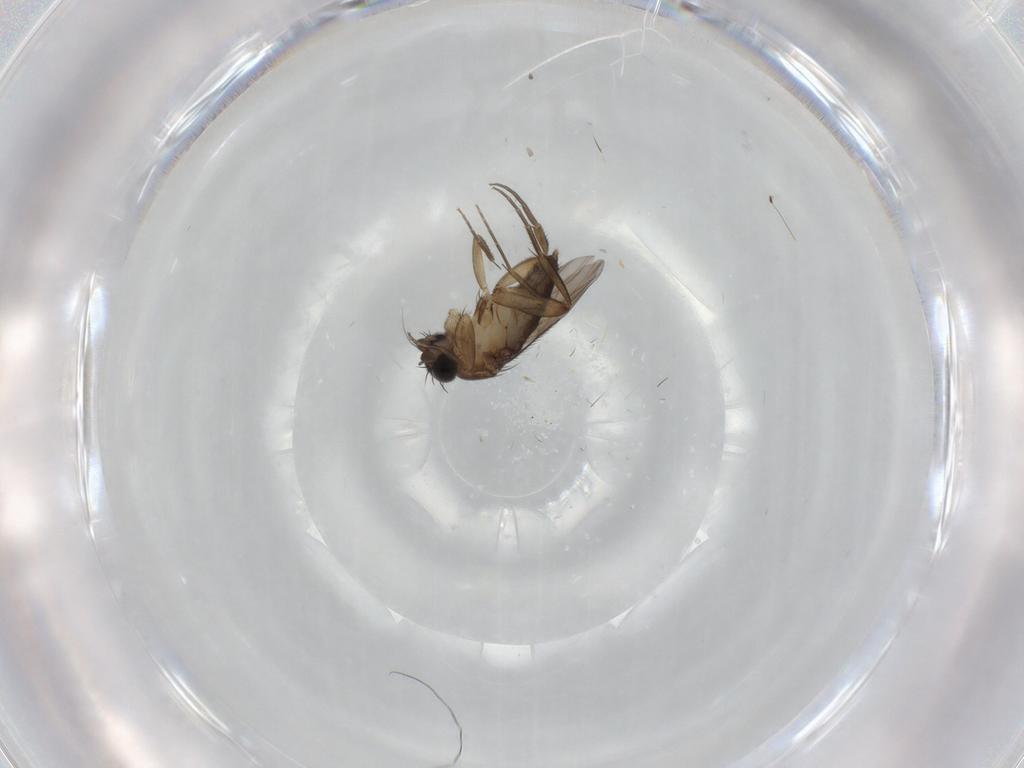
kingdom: Animalia
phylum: Arthropoda
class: Insecta
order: Diptera
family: Phoridae
